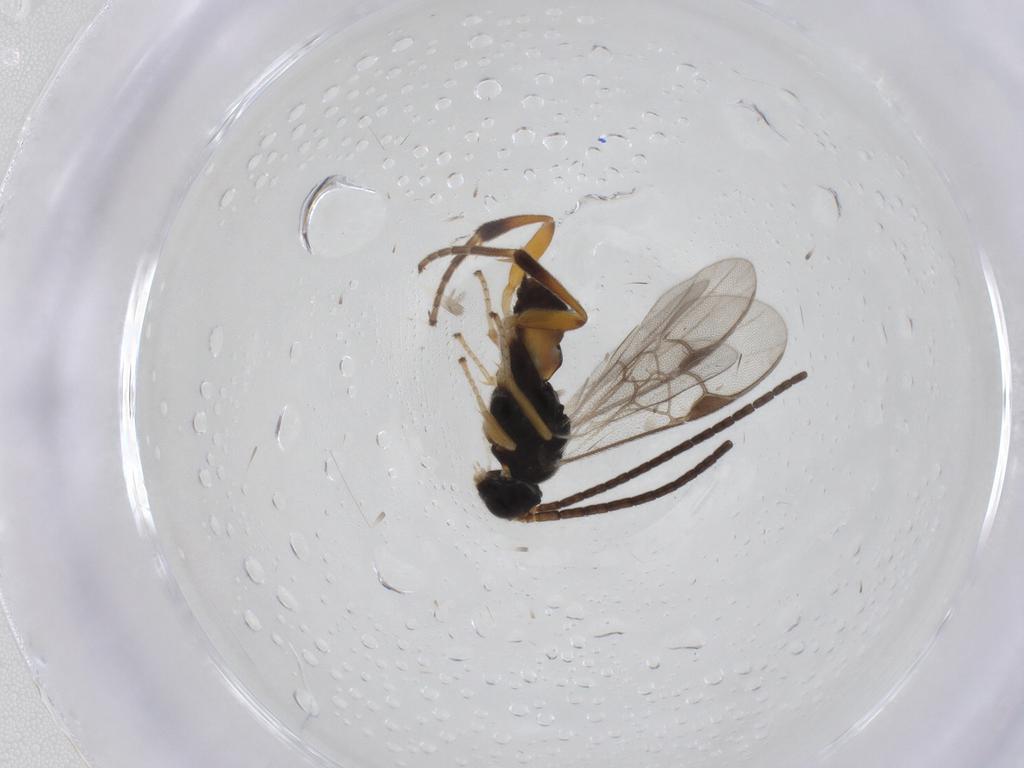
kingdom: Animalia
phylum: Arthropoda
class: Insecta
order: Hymenoptera
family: Braconidae
